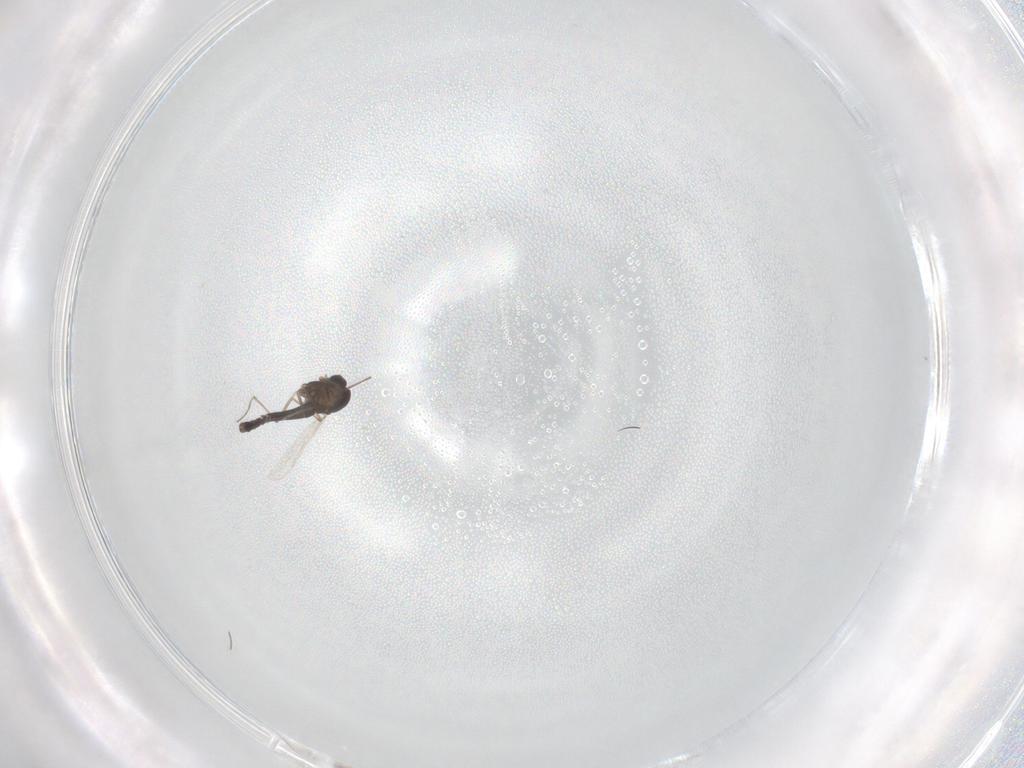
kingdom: Animalia
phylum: Arthropoda
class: Insecta
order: Diptera
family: Chironomidae
